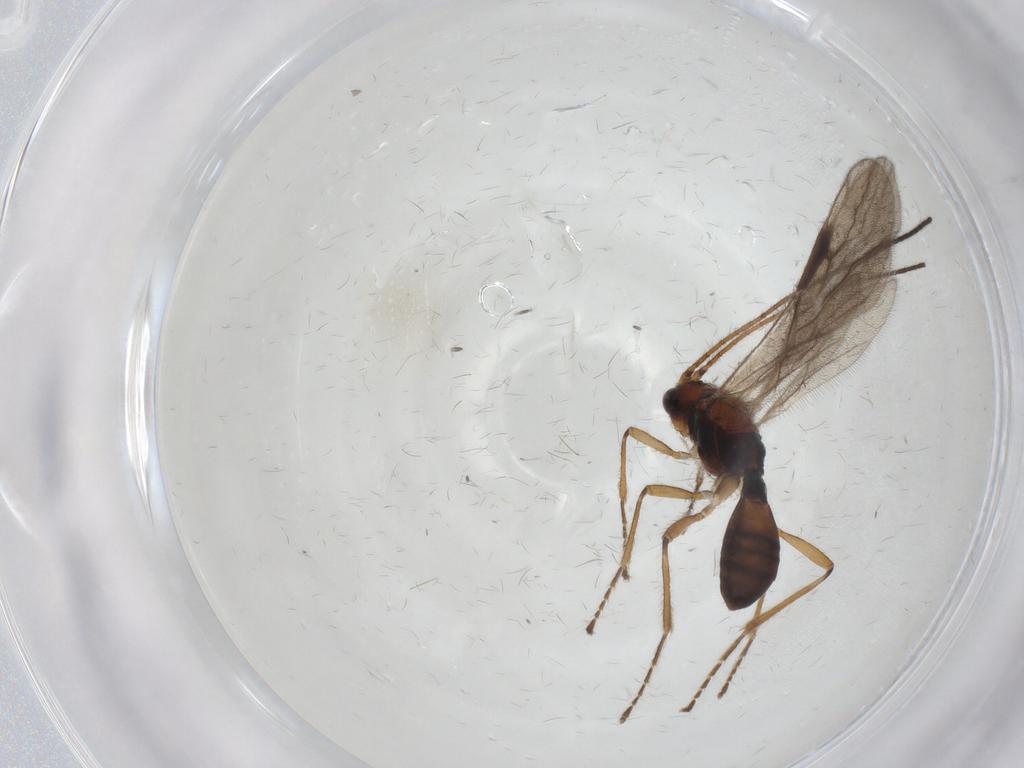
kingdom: Animalia
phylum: Arthropoda
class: Insecta
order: Hymenoptera
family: Braconidae
